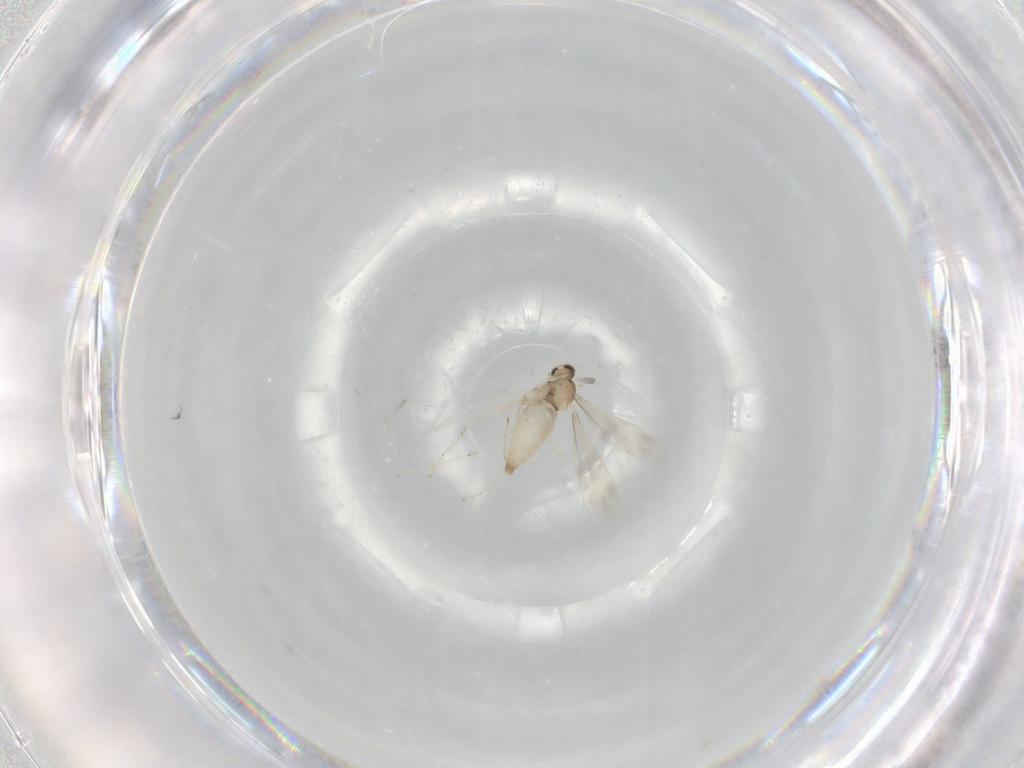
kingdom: Animalia
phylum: Arthropoda
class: Insecta
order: Diptera
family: Cecidomyiidae
